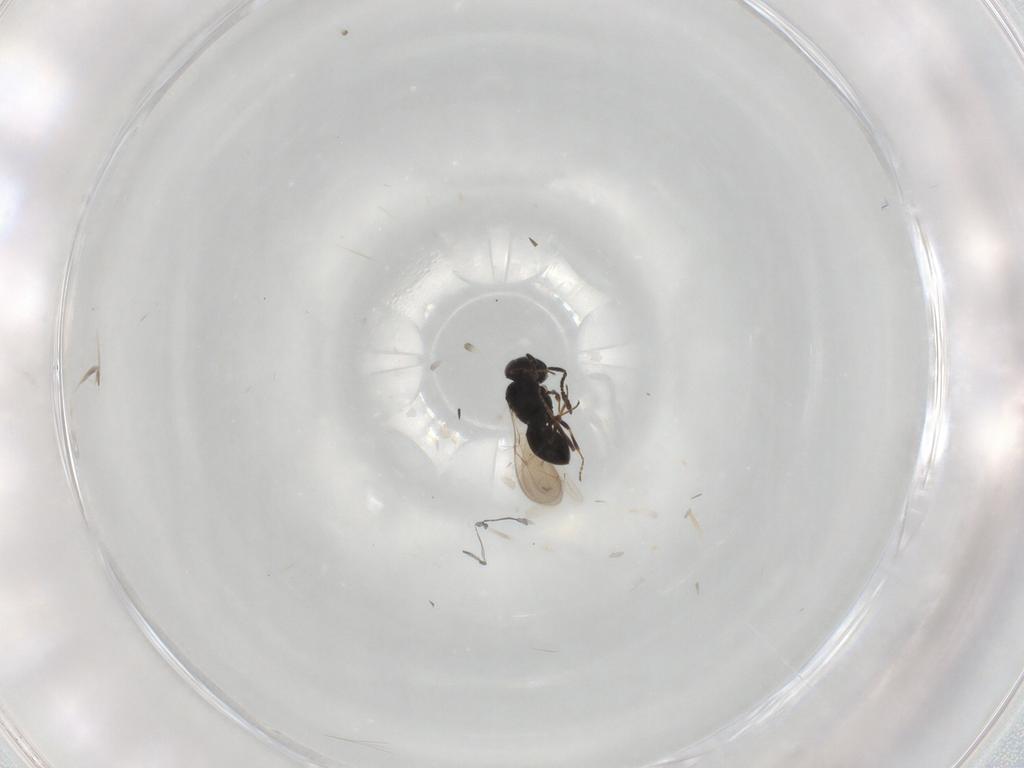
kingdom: Animalia
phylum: Arthropoda
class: Insecta
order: Hymenoptera
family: Scelionidae
